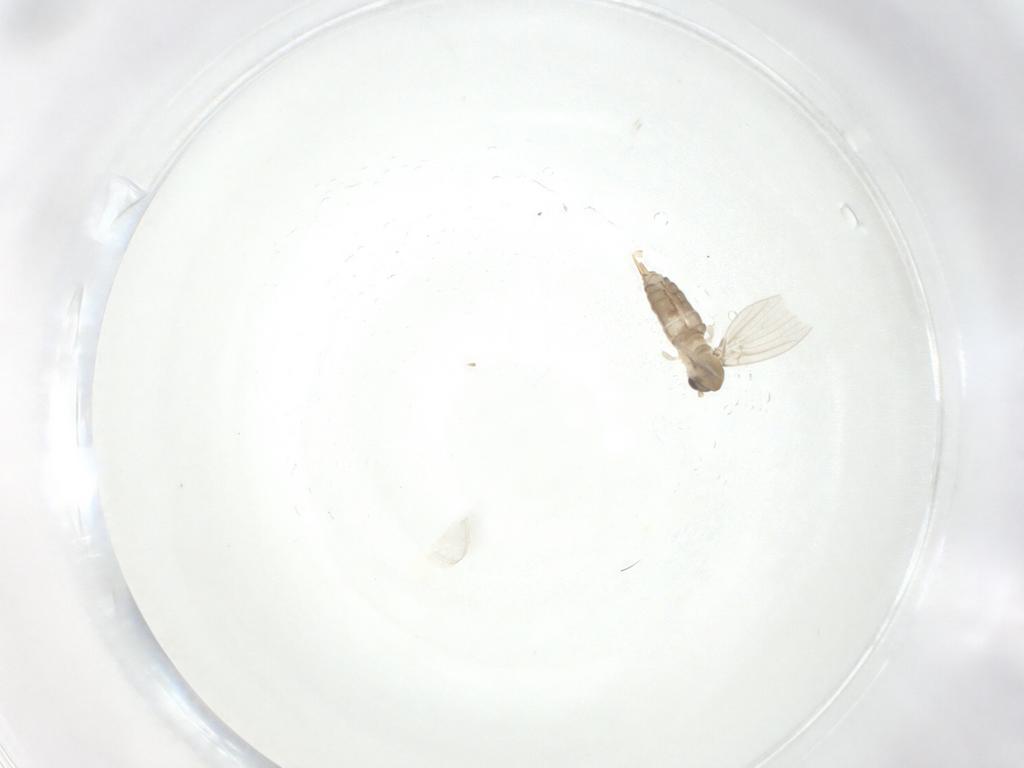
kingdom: Animalia
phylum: Arthropoda
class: Insecta
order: Diptera
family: Psychodidae
